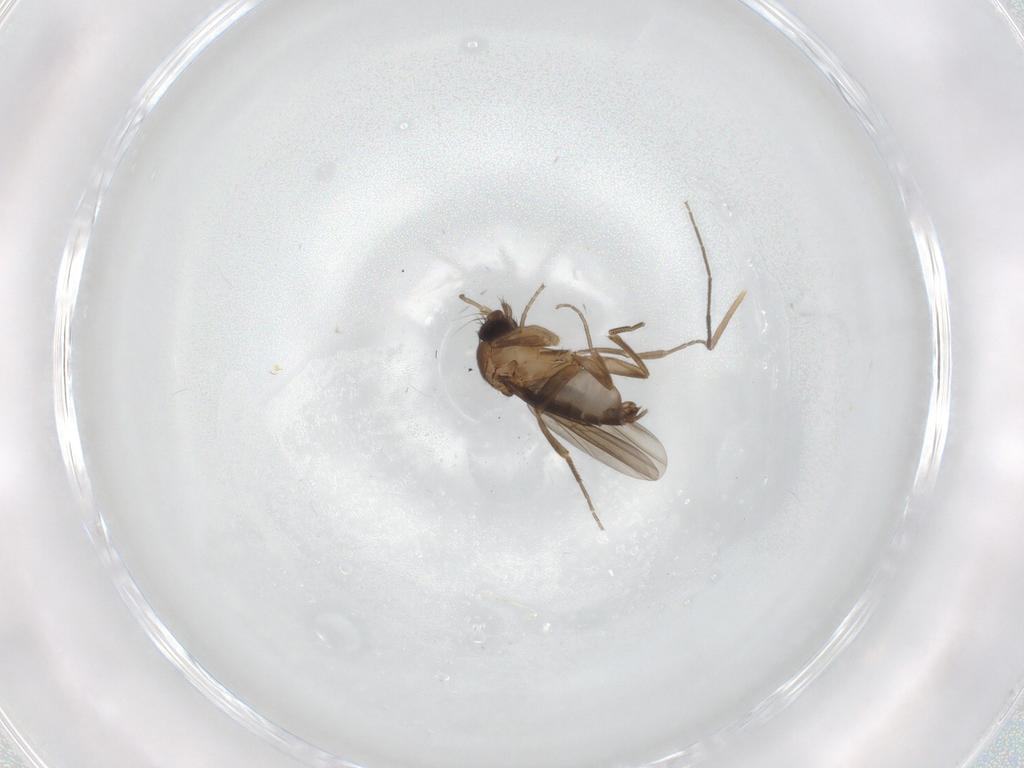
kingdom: Animalia
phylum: Arthropoda
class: Insecta
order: Diptera
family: Phoridae
